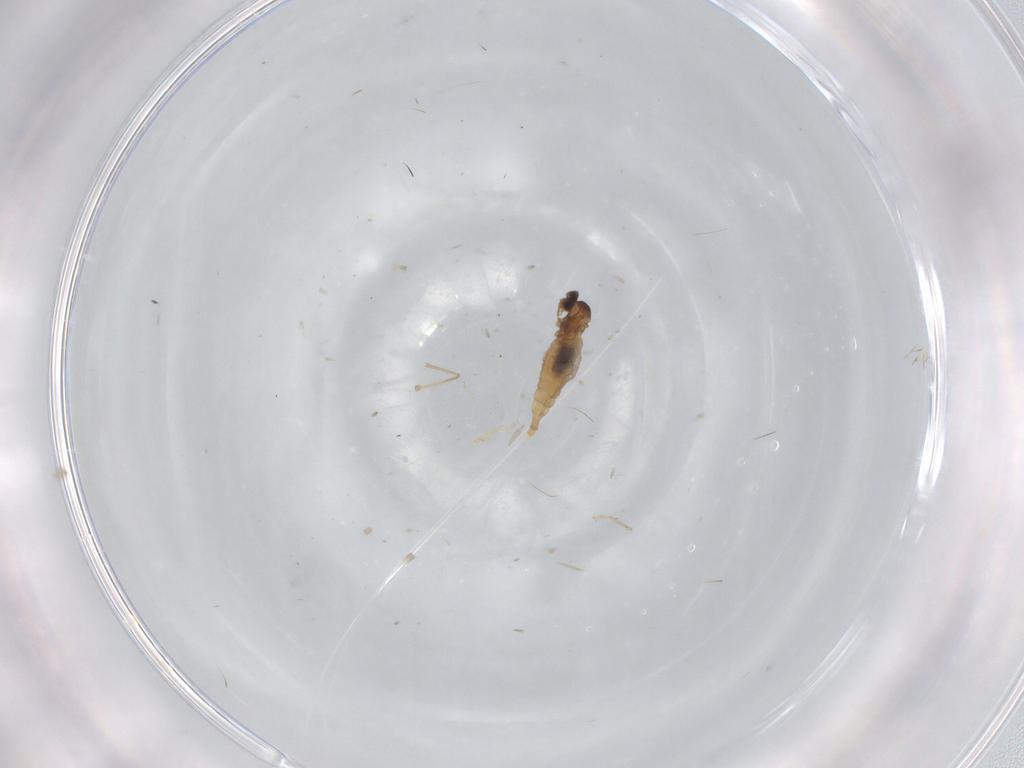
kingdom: Animalia
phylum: Arthropoda
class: Insecta
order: Diptera
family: Cecidomyiidae
